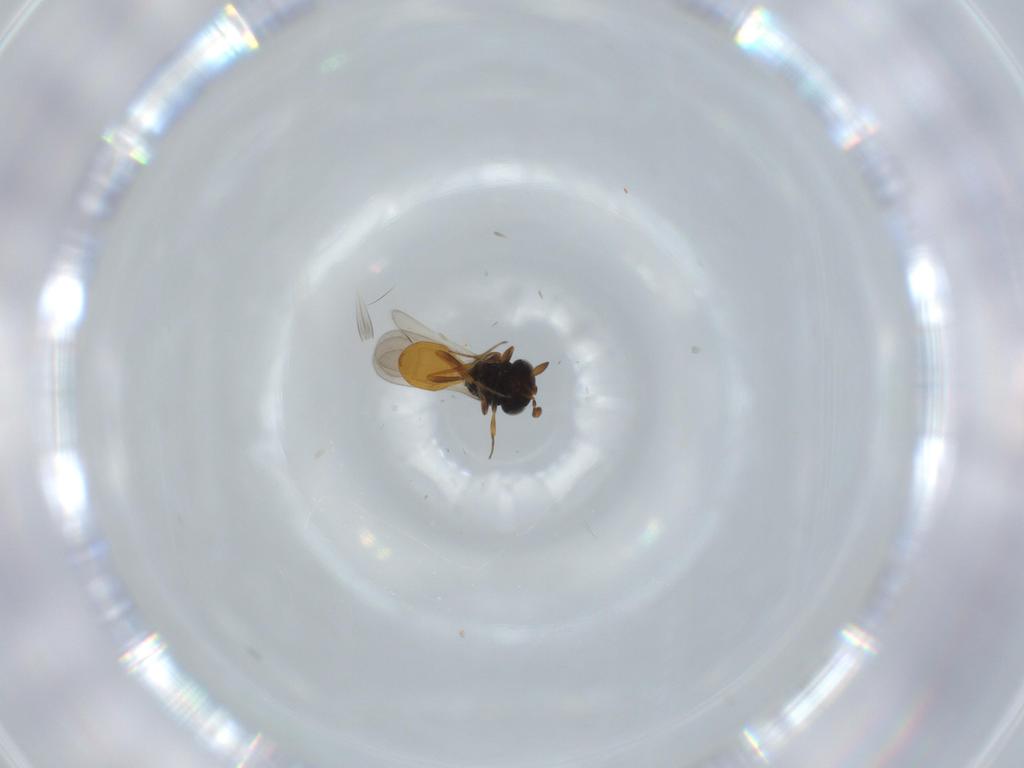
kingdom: Animalia
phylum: Arthropoda
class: Insecta
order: Hymenoptera
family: Scelionidae
